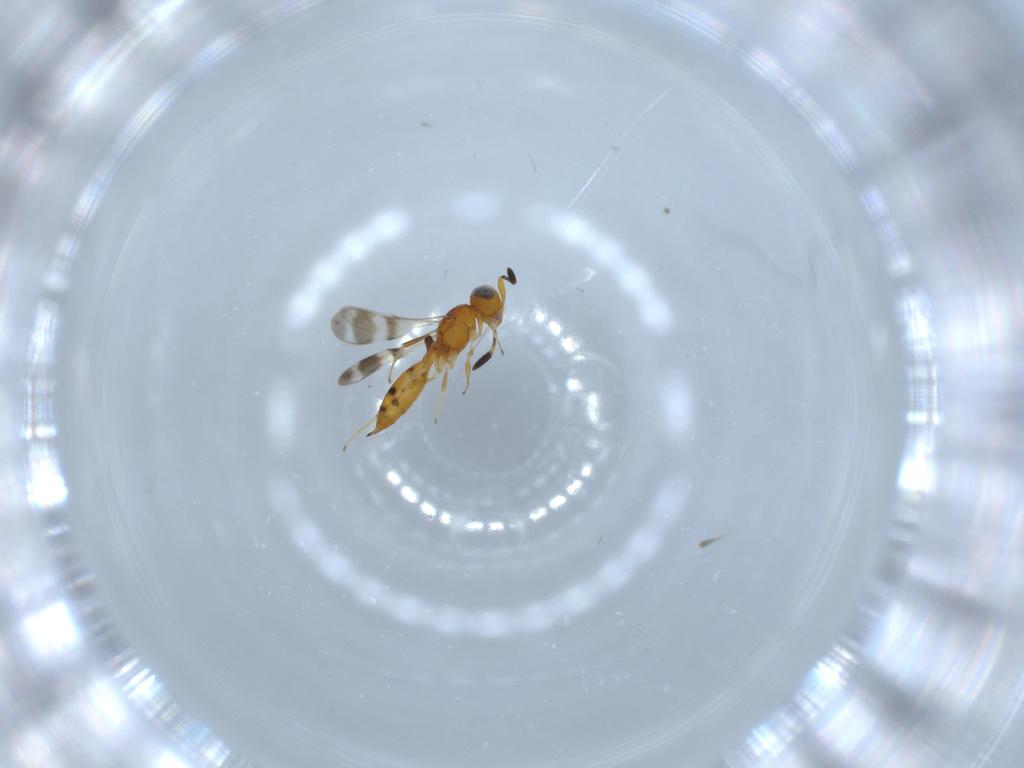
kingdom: Animalia
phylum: Arthropoda
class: Insecta
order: Hymenoptera
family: Scelionidae
